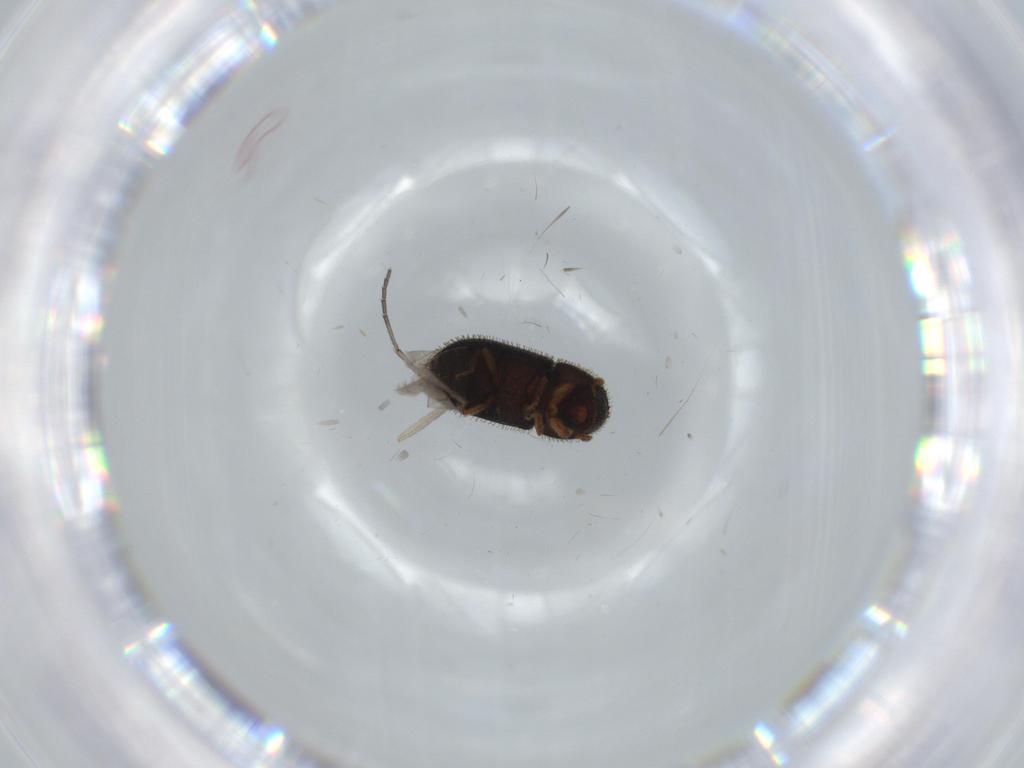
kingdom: Animalia
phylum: Arthropoda
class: Insecta
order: Coleoptera
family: Curculionidae
